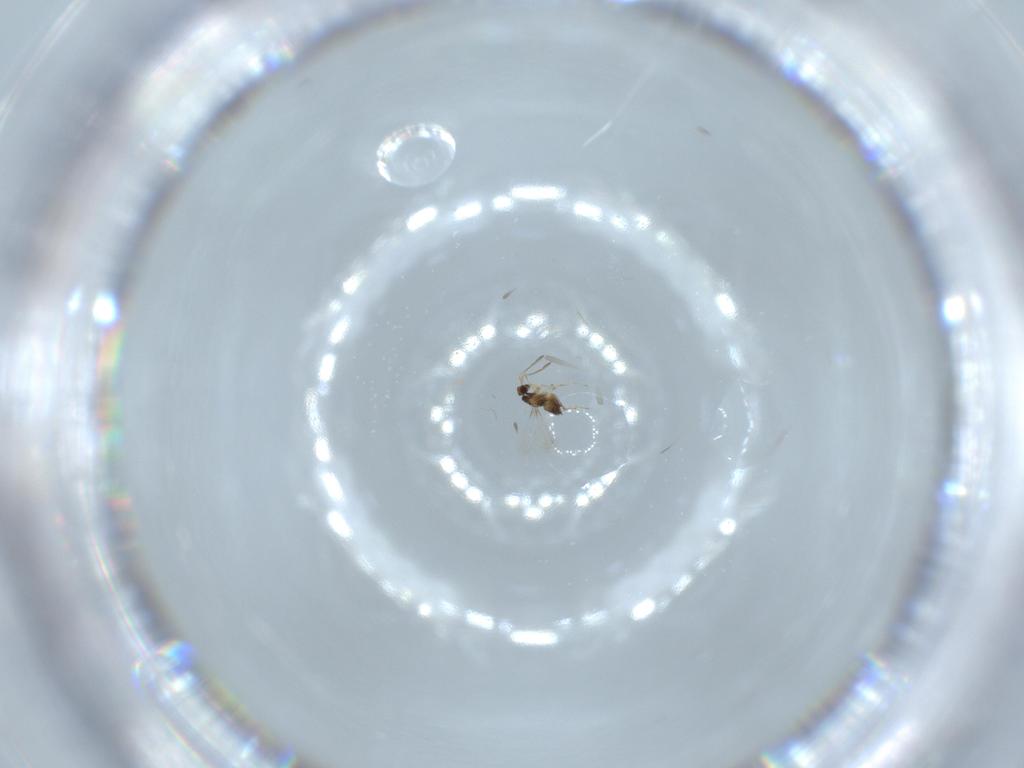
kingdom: Animalia
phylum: Arthropoda
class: Insecta
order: Hymenoptera
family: Mymaridae
